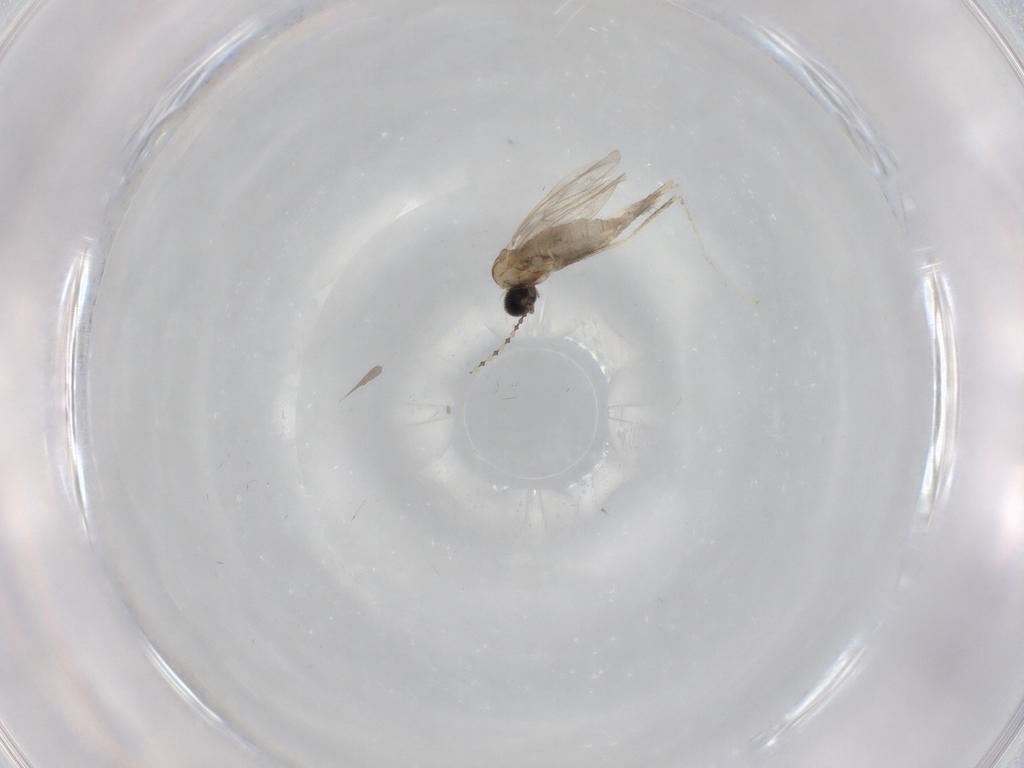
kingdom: Animalia
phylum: Arthropoda
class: Insecta
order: Diptera
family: Cecidomyiidae
